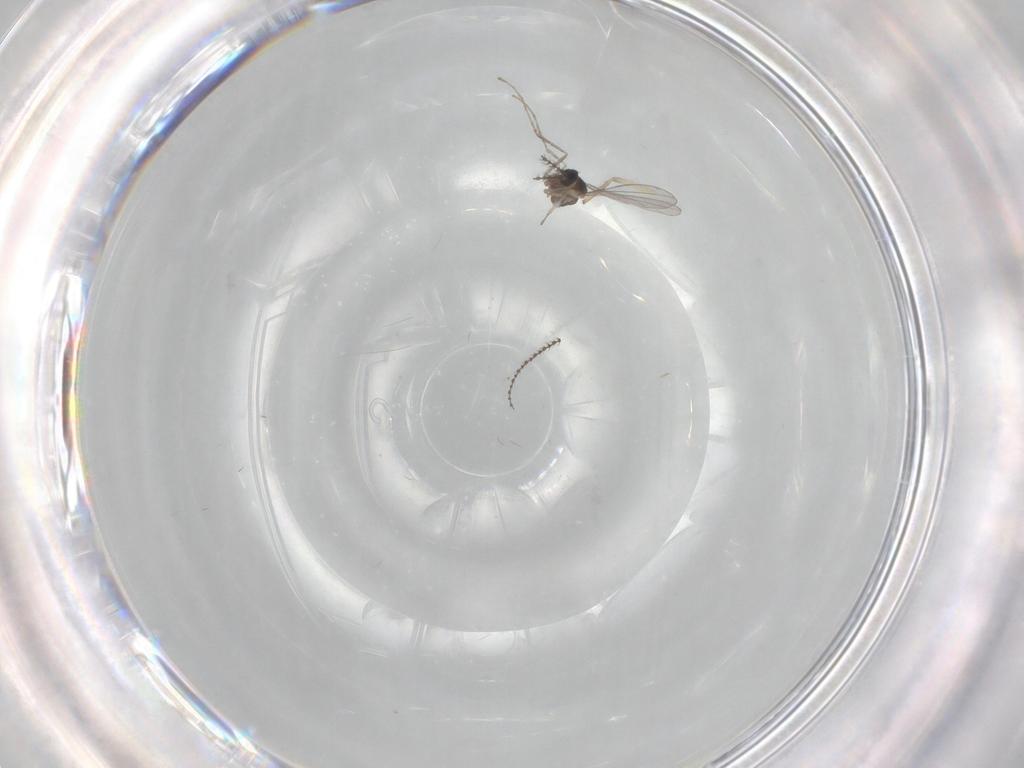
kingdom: Animalia
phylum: Arthropoda
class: Insecta
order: Diptera
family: Cecidomyiidae
